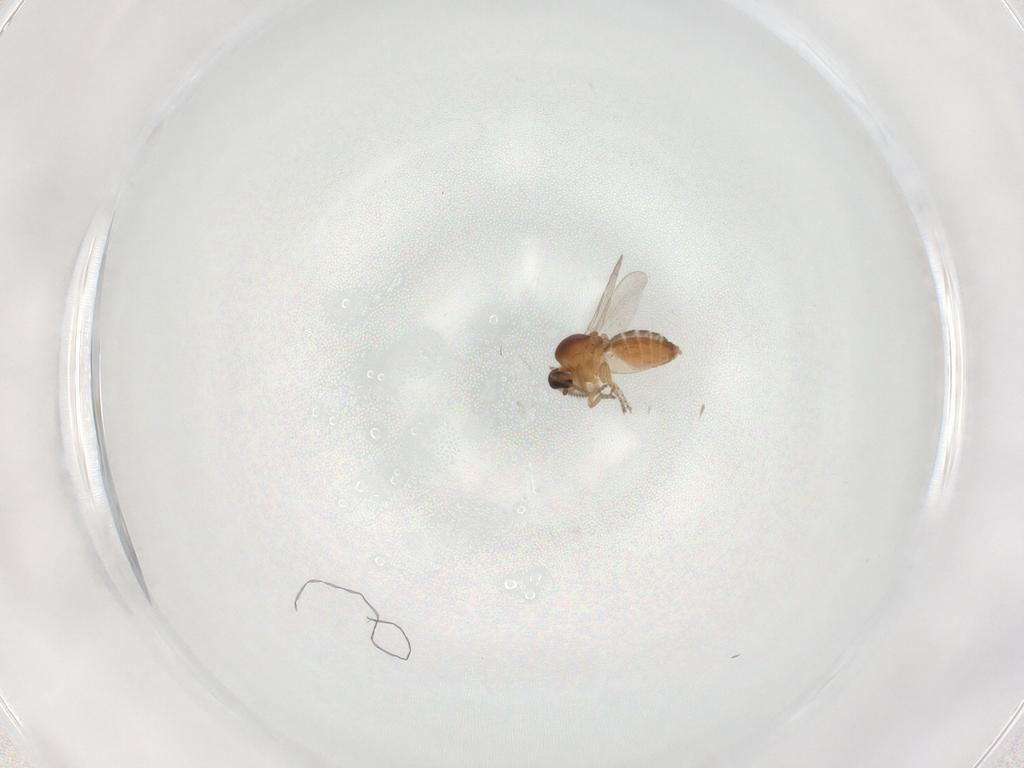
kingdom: Animalia
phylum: Arthropoda
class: Insecta
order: Diptera
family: Ceratopogonidae
